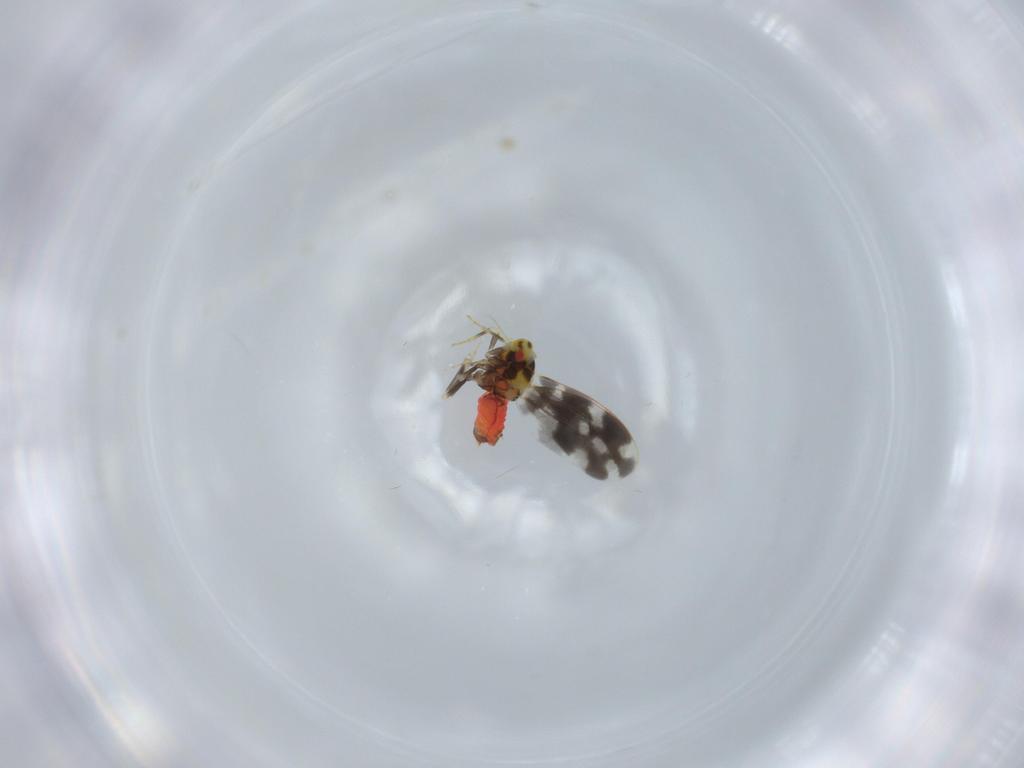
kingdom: Animalia
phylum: Arthropoda
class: Insecta
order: Hemiptera
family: Aleyrodidae
